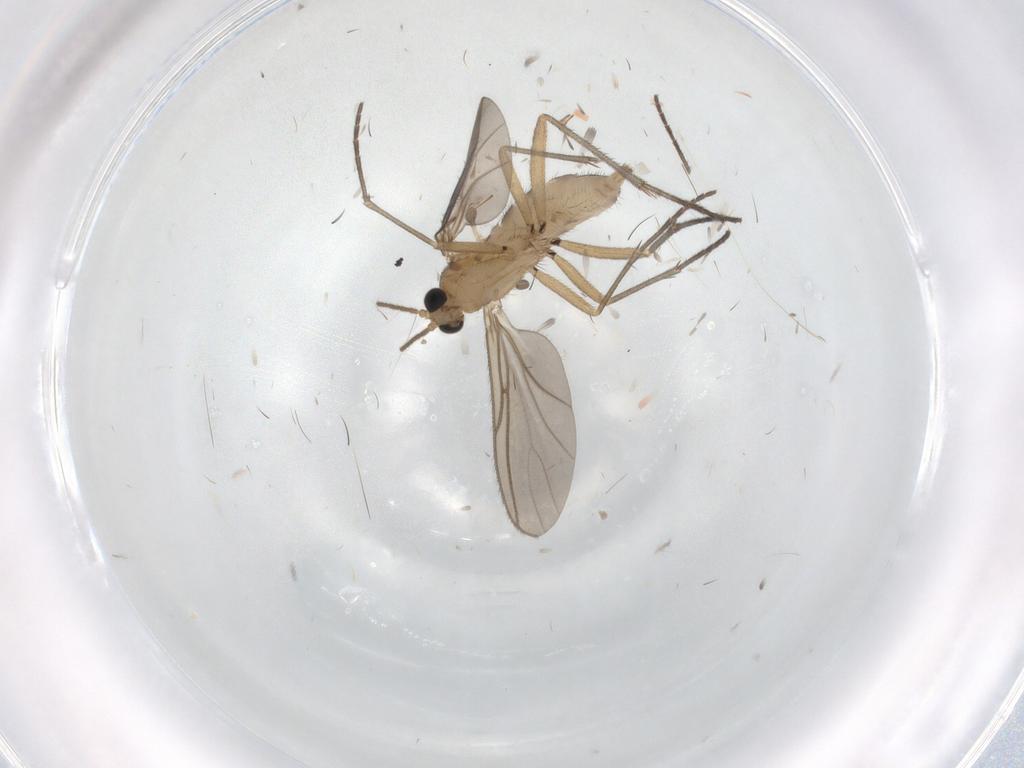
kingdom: Animalia
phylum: Arthropoda
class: Insecta
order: Diptera
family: Sciaridae
